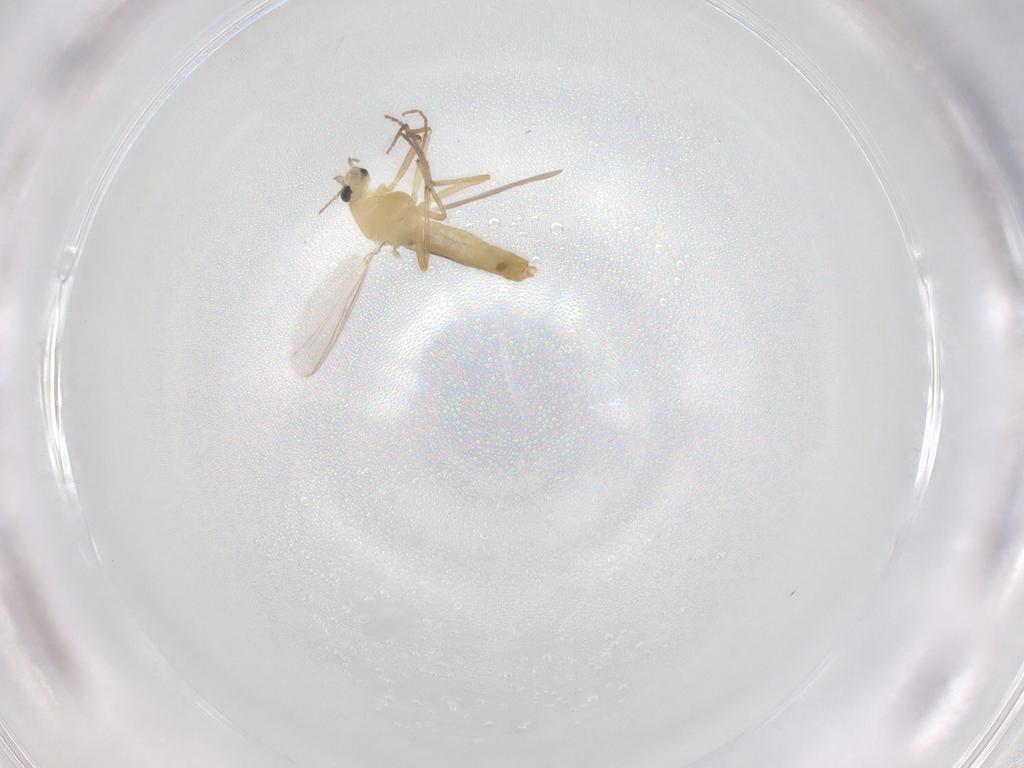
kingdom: Animalia
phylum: Arthropoda
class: Insecta
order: Diptera
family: Chironomidae
